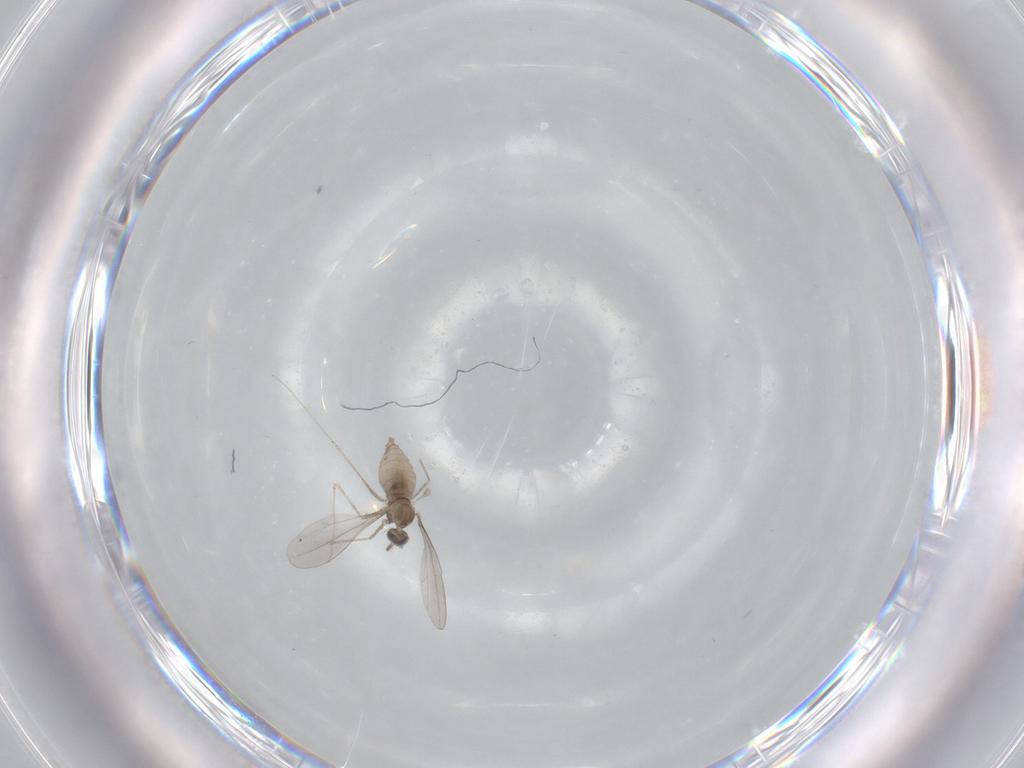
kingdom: Animalia
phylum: Arthropoda
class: Insecta
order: Diptera
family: Cecidomyiidae
